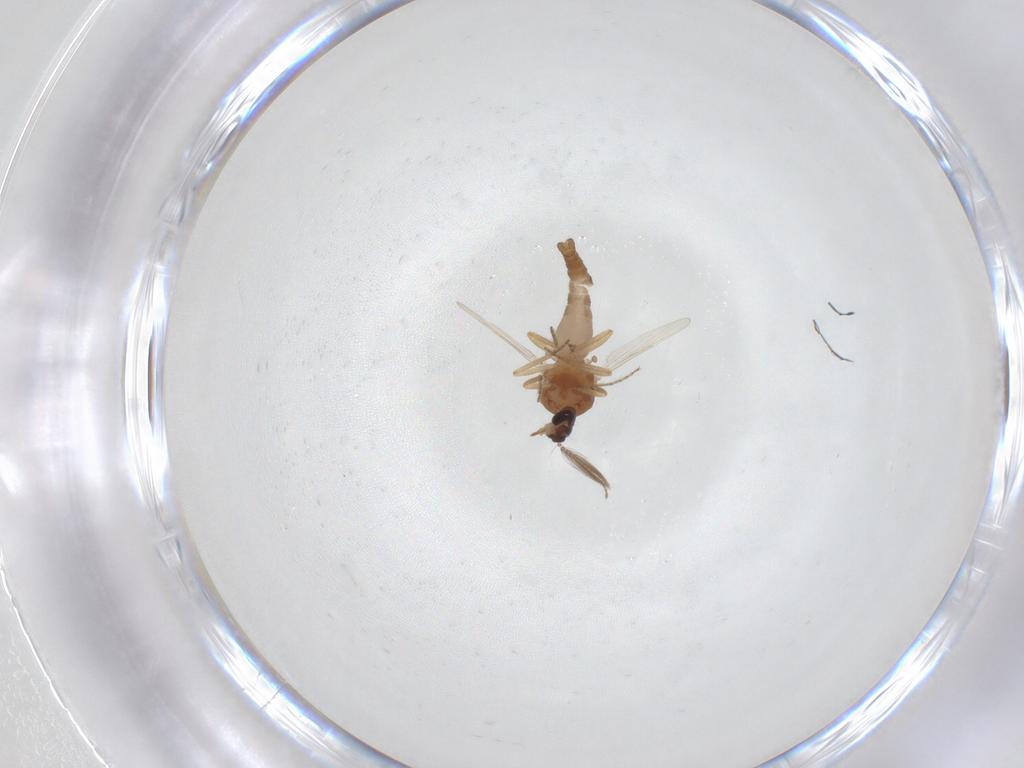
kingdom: Animalia
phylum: Arthropoda
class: Insecta
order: Diptera
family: Ceratopogonidae
